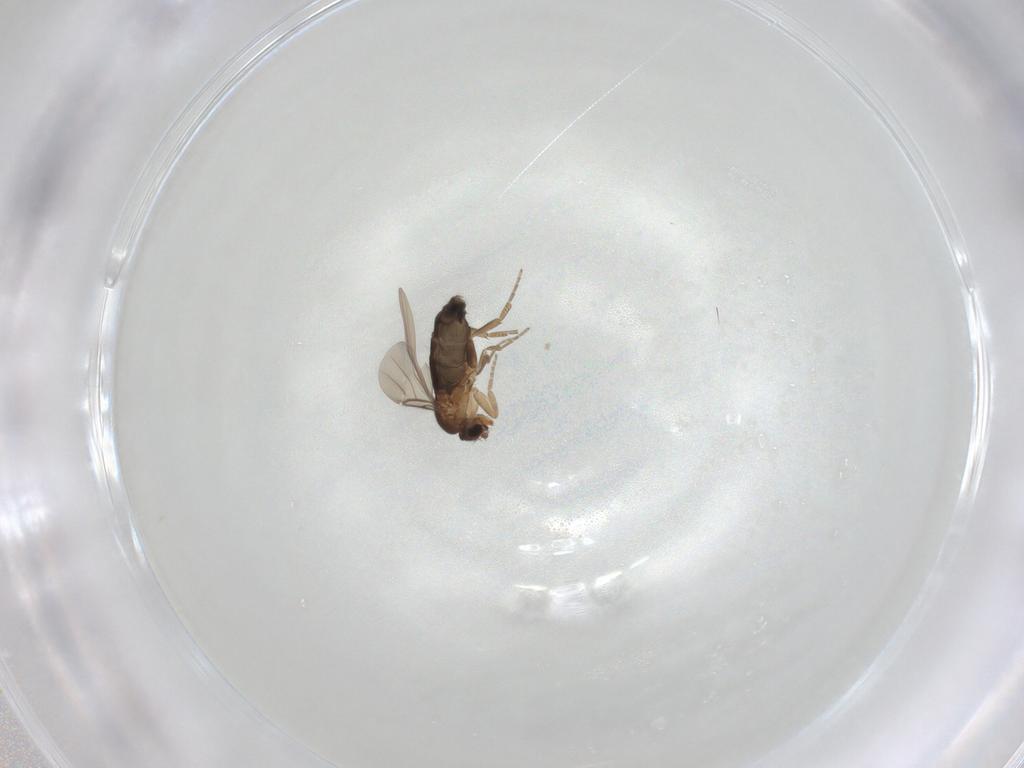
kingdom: Animalia
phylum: Arthropoda
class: Insecta
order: Diptera
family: Phoridae
